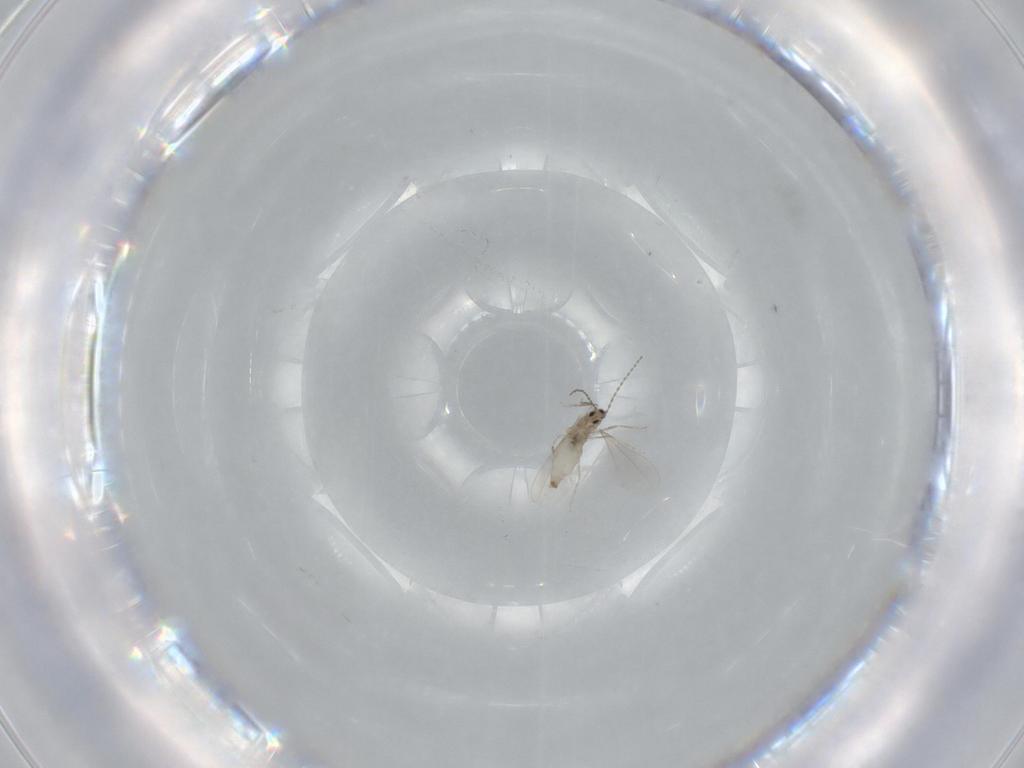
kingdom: Animalia
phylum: Arthropoda
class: Insecta
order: Diptera
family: Cecidomyiidae
